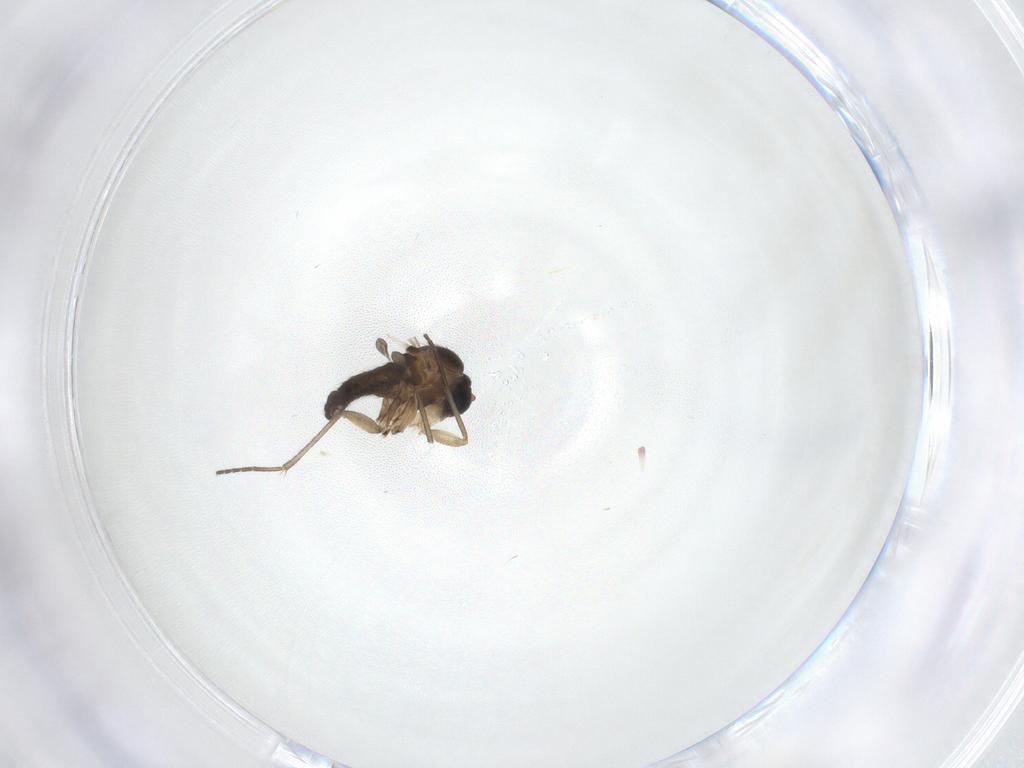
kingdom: Animalia
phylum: Arthropoda
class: Insecta
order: Diptera
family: Sciaridae
